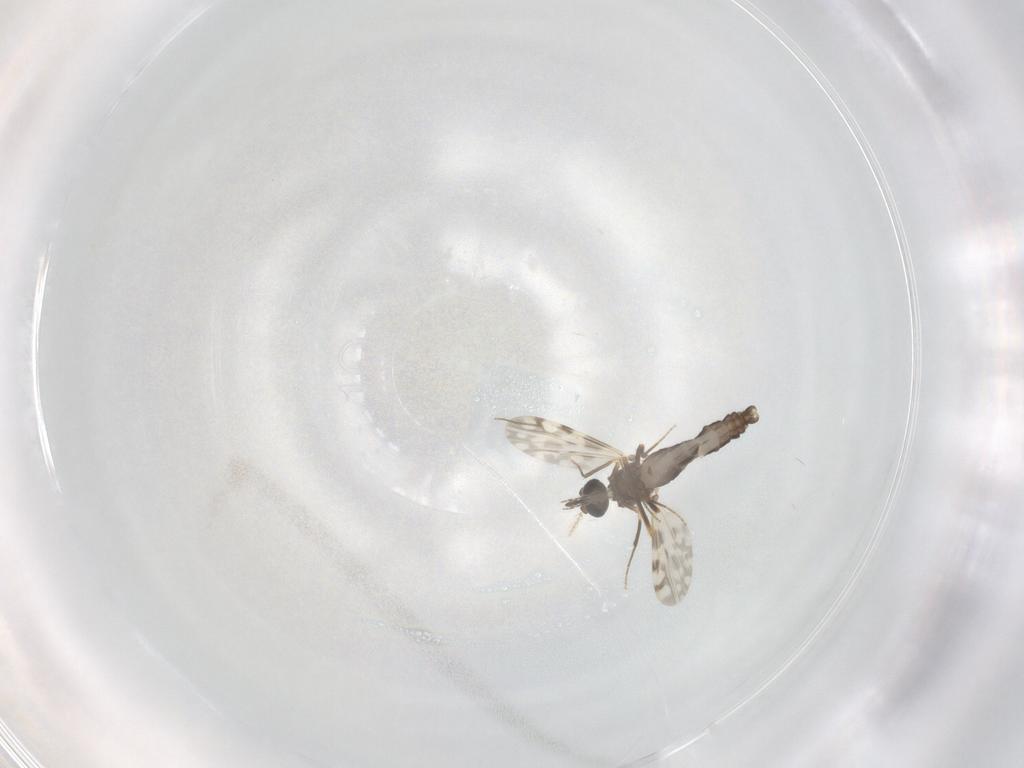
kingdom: Animalia
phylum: Arthropoda
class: Insecta
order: Diptera
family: Ceratopogonidae
